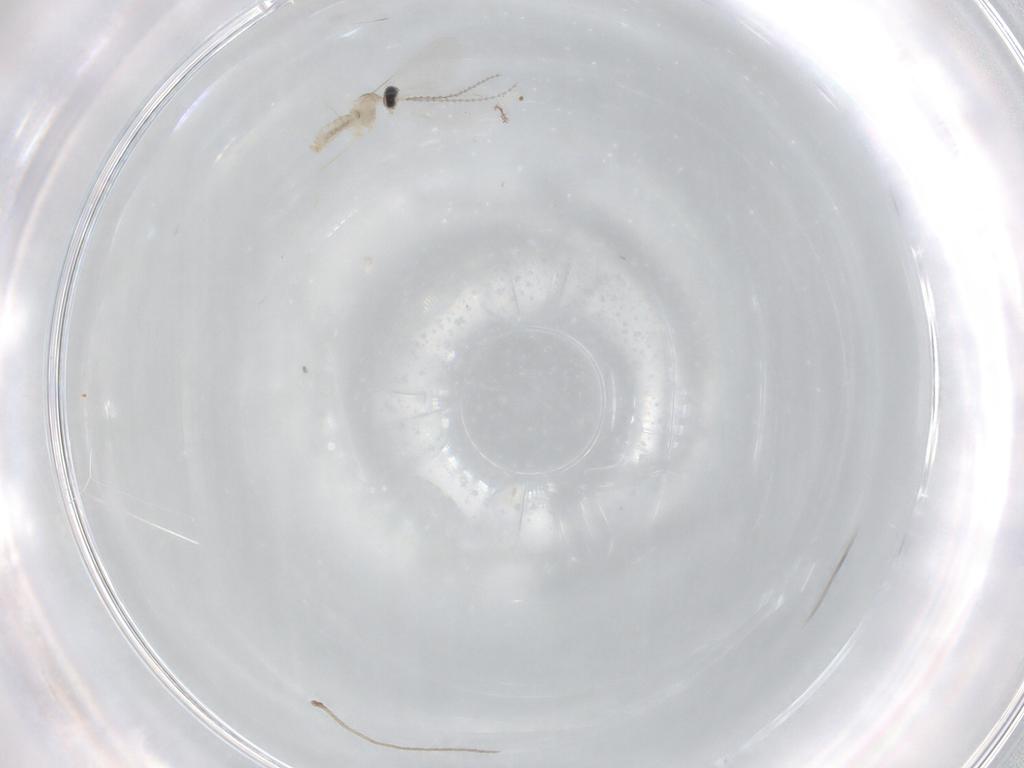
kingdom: Animalia
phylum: Arthropoda
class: Insecta
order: Diptera
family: Cecidomyiidae
